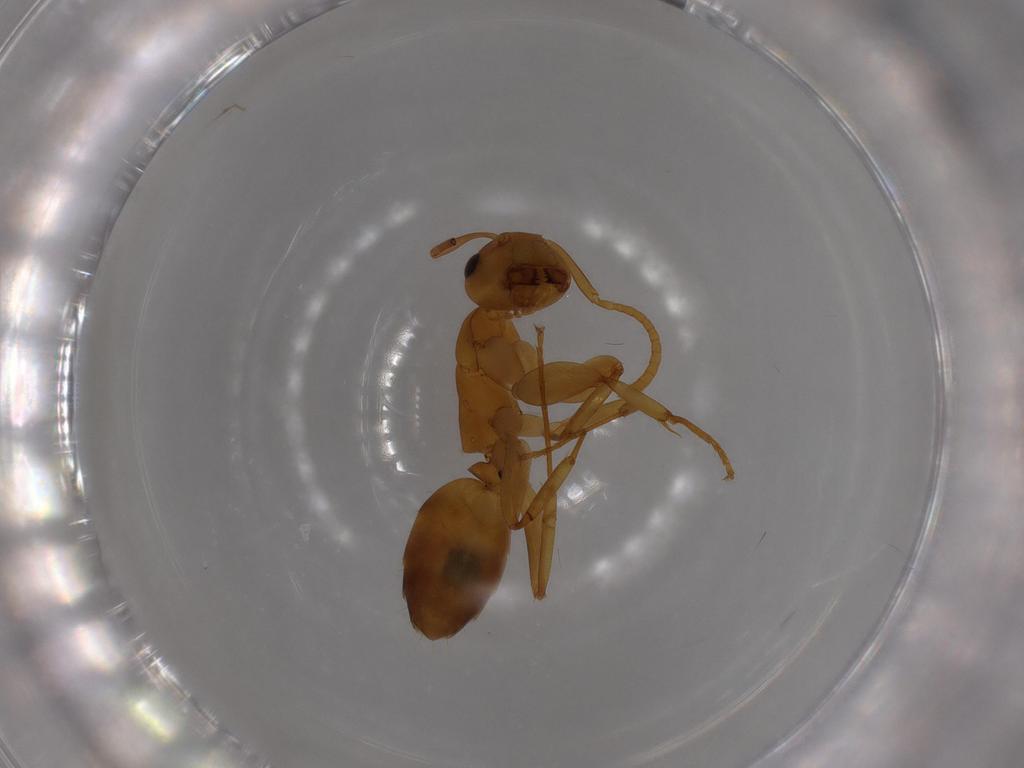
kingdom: Animalia
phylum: Arthropoda
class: Insecta
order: Hymenoptera
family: Formicidae
